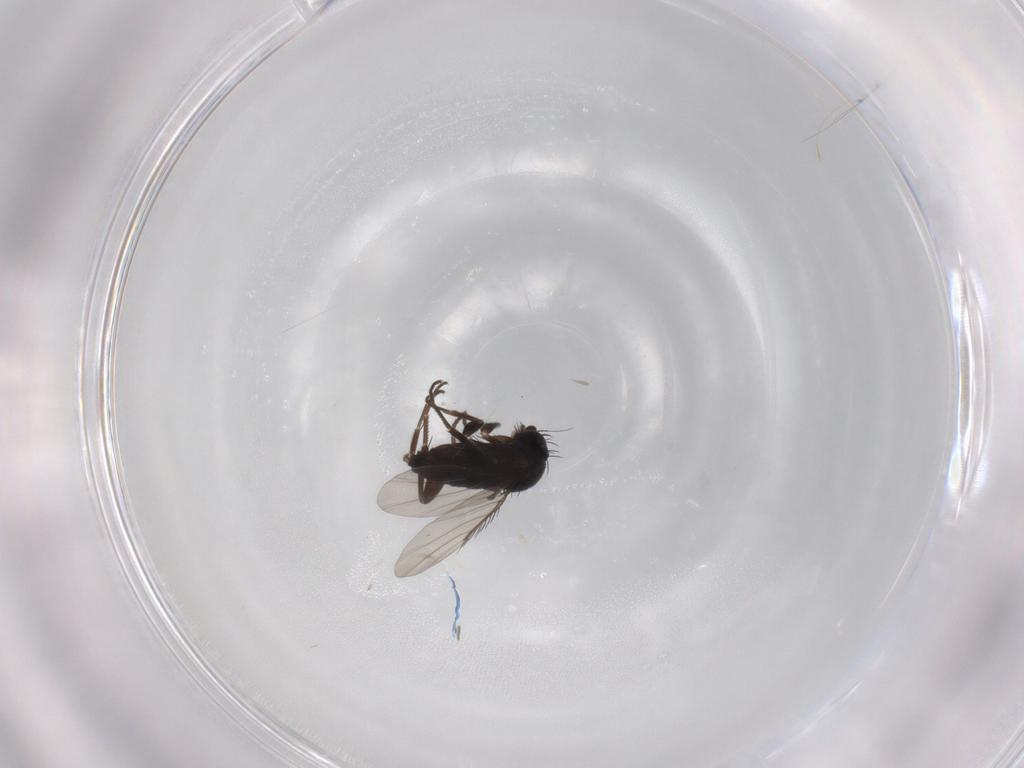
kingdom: Animalia
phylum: Arthropoda
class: Insecta
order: Diptera
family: Phoridae
